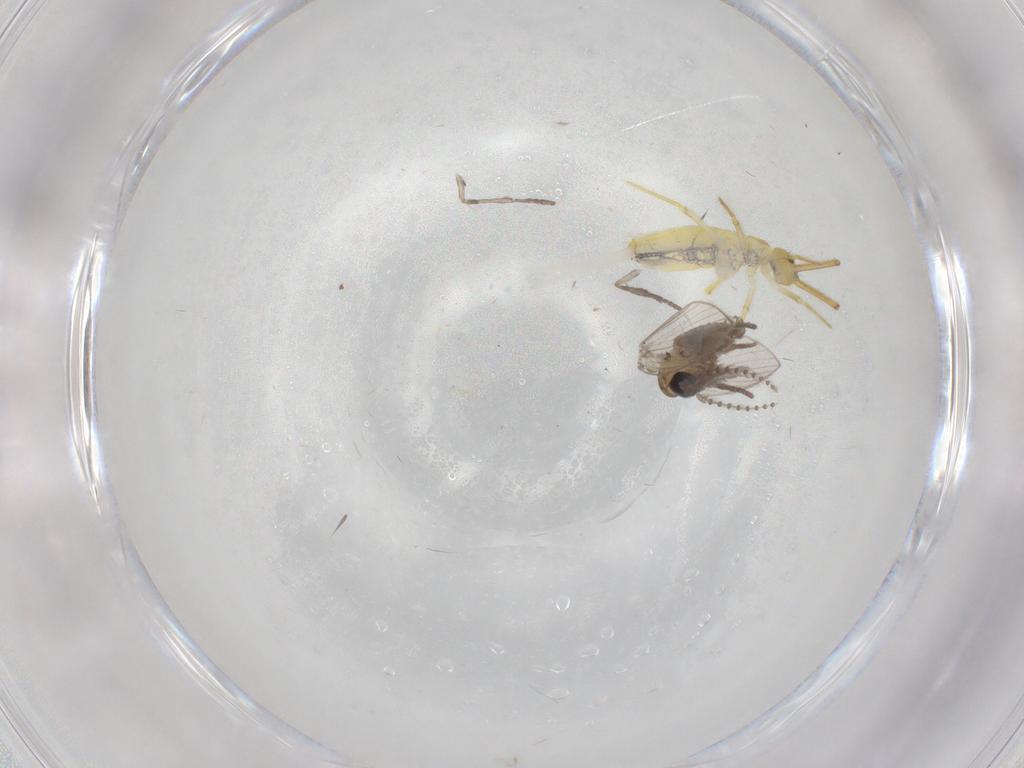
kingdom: Animalia
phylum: Arthropoda
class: Insecta
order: Diptera
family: Psychodidae
